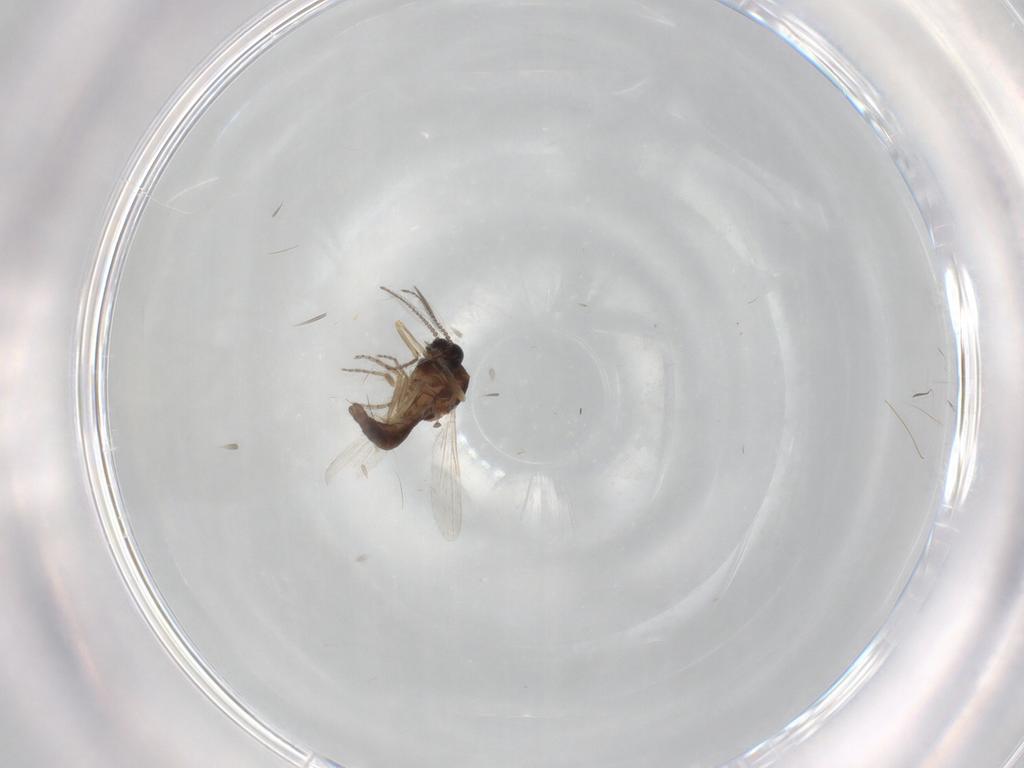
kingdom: Animalia
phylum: Arthropoda
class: Insecta
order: Diptera
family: Ceratopogonidae
